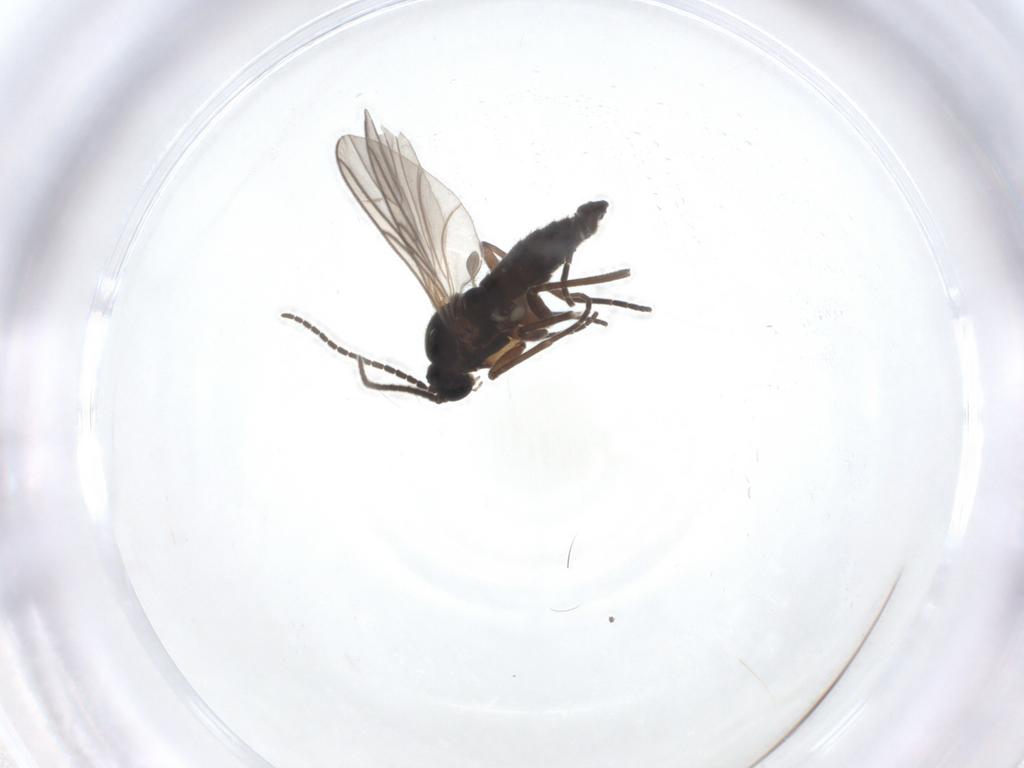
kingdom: Animalia
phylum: Arthropoda
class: Insecta
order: Diptera
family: Sciaridae
